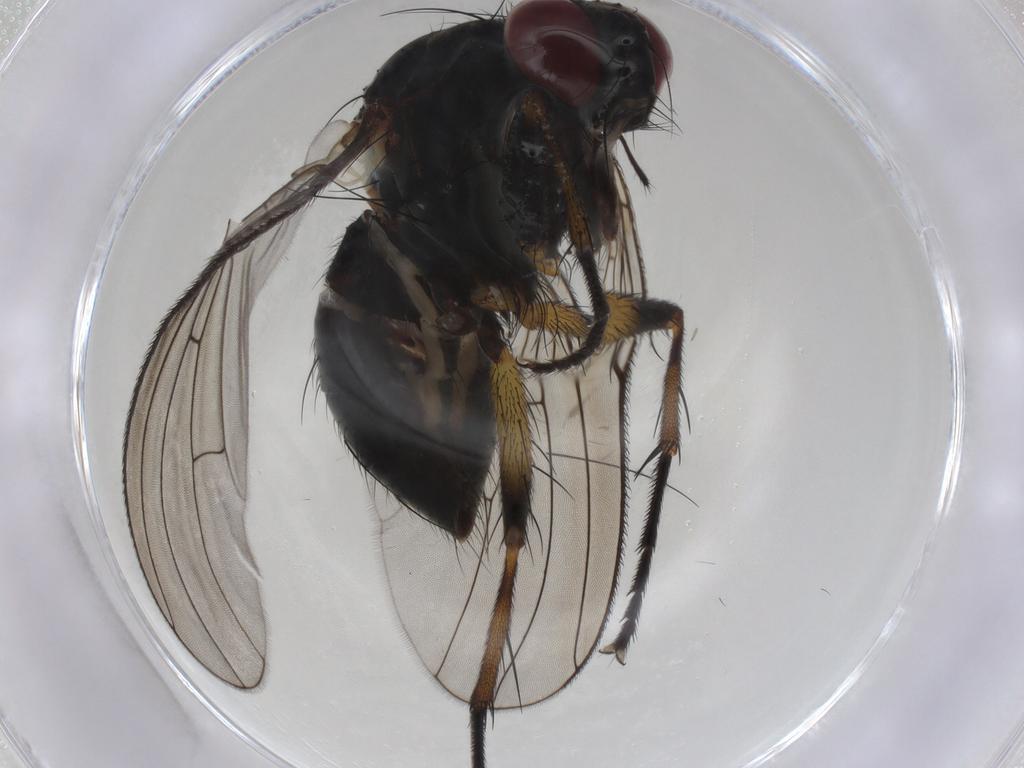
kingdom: Animalia
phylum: Arthropoda
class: Insecta
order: Diptera
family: Muscidae
